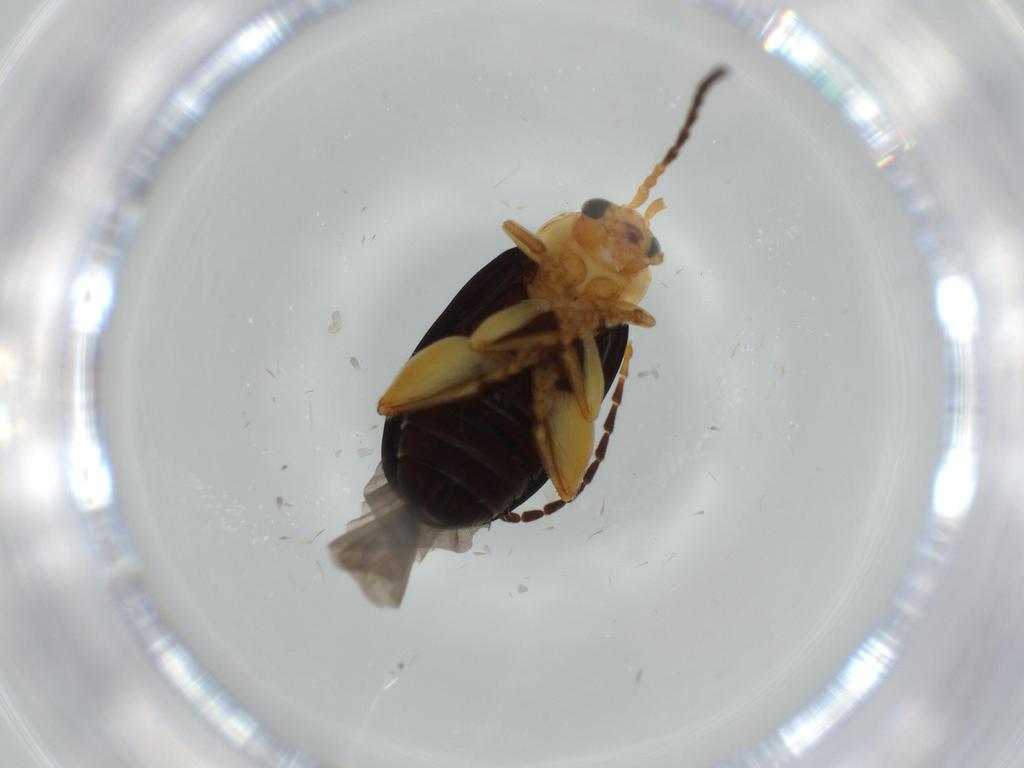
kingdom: Animalia
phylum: Arthropoda
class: Insecta
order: Coleoptera
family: Chrysomelidae
